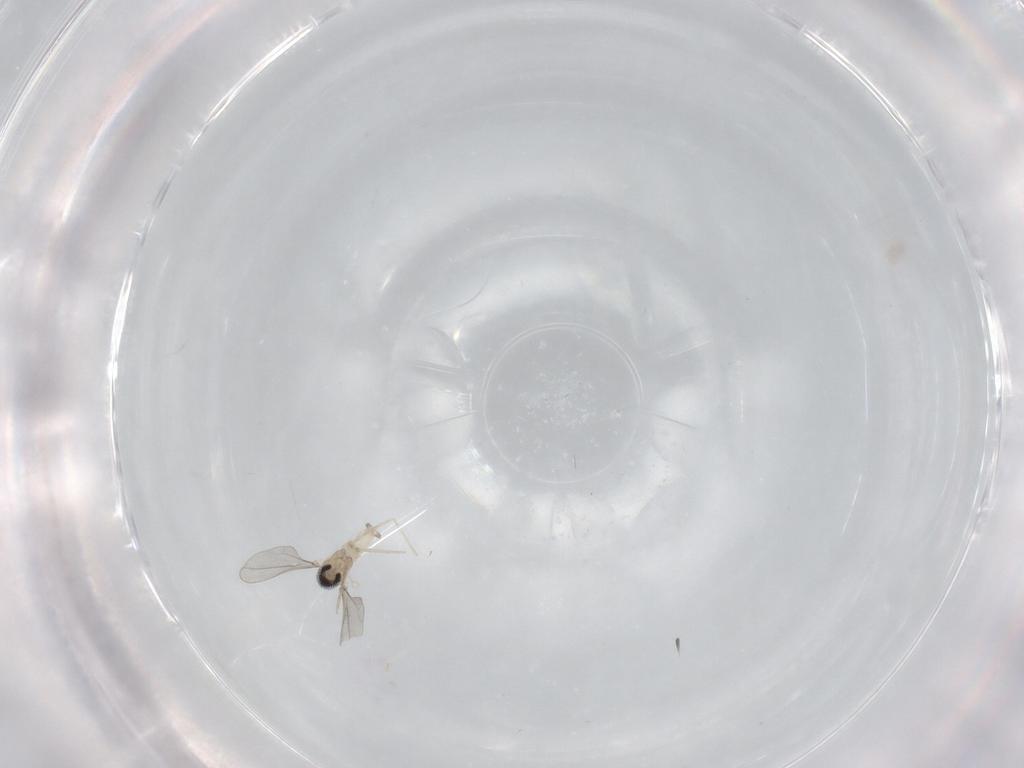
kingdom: Animalia
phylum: Arthropoda
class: Insecta
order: Diptera
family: Cecidomyiidae
